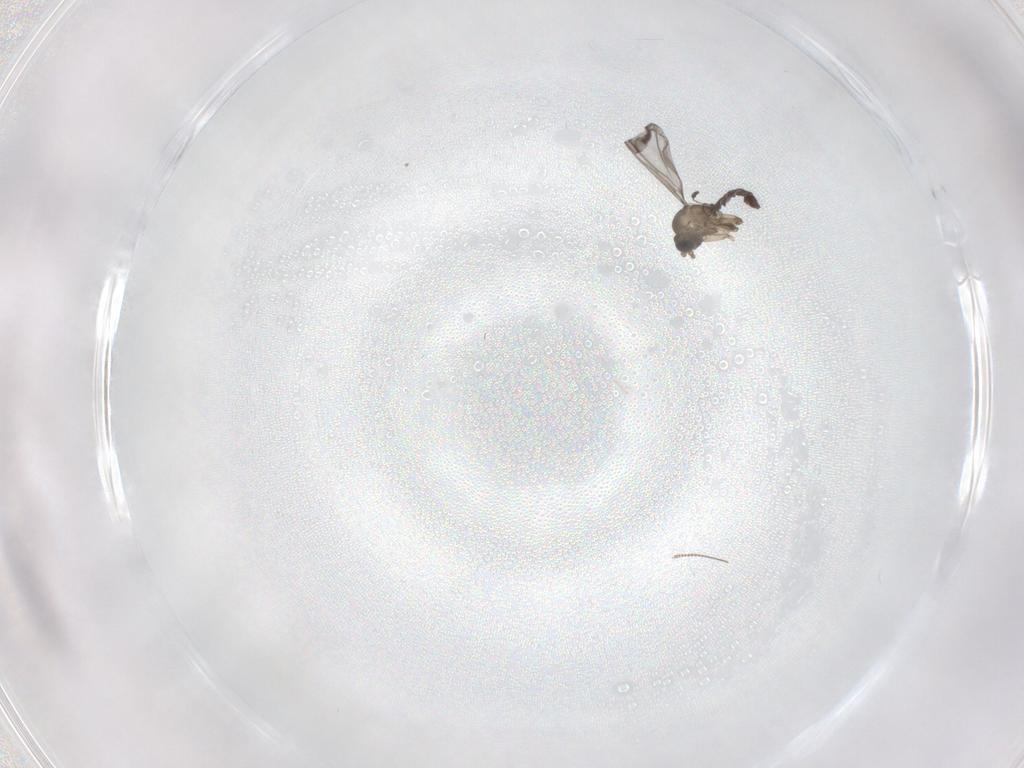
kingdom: Animalia
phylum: Arthropoda
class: Insecta
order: Diptera
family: Chironomidae
